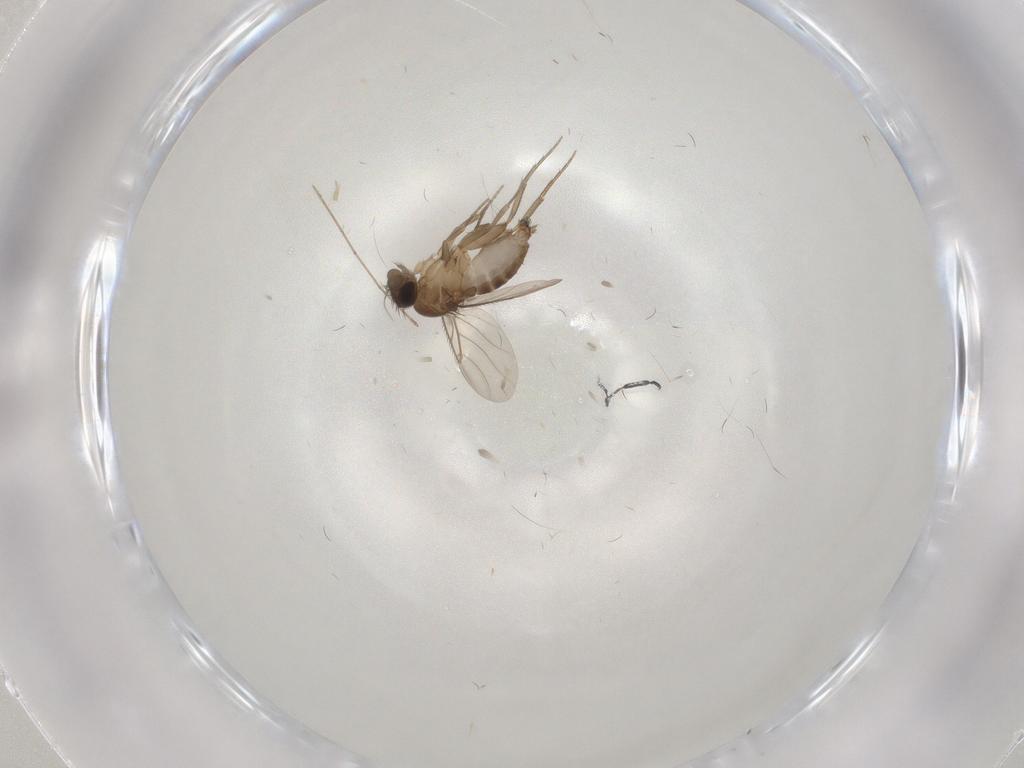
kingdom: Animalia
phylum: Arthropoda
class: Insecta
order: Diptera
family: Phoridae
